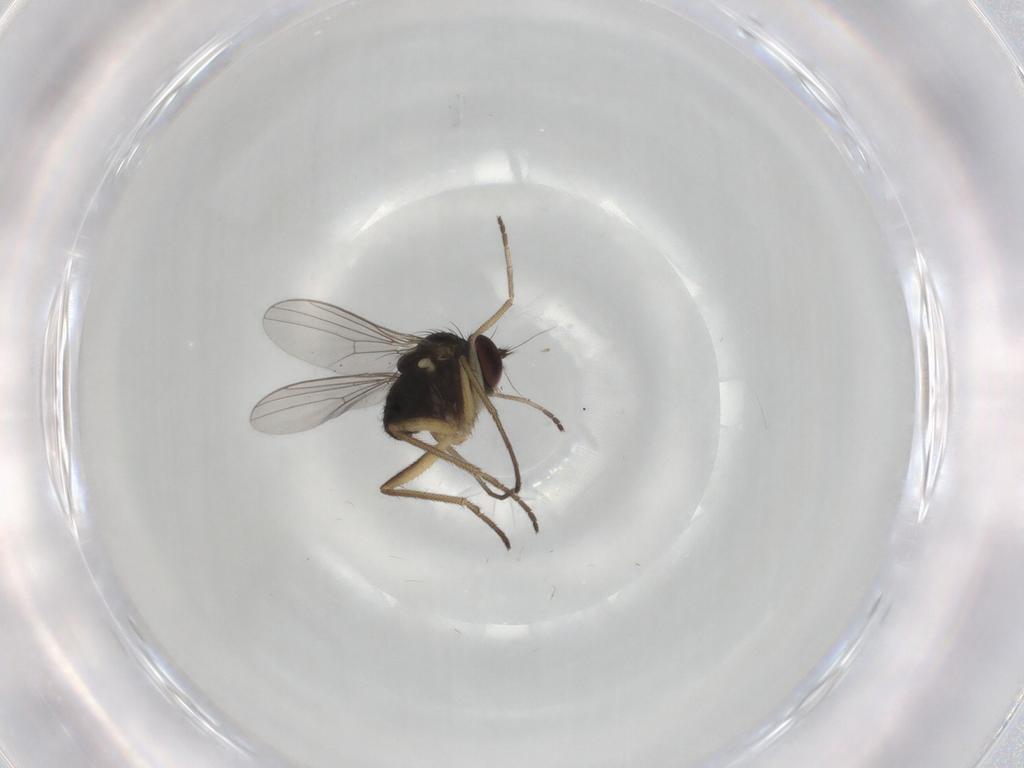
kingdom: Animalia
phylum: Arthropoda
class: Insecta
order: Diptera
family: Dolichopodidae
